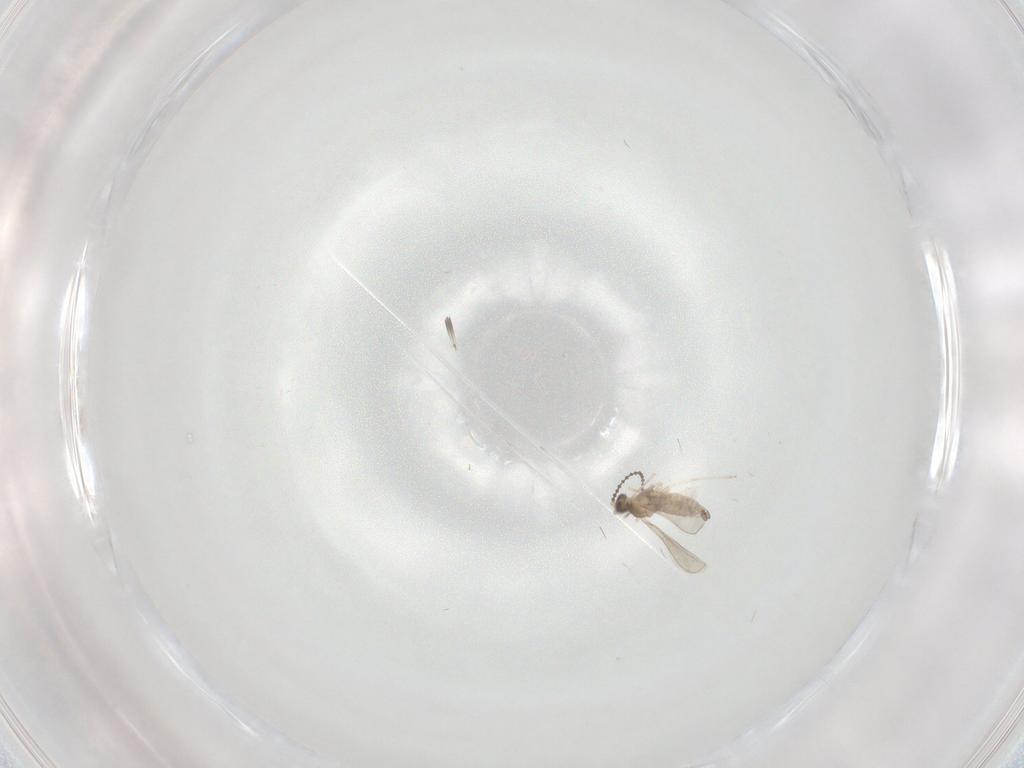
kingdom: Animalia
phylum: Arthropoda
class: Insecta
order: Diptera
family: Cecidomyiidae
